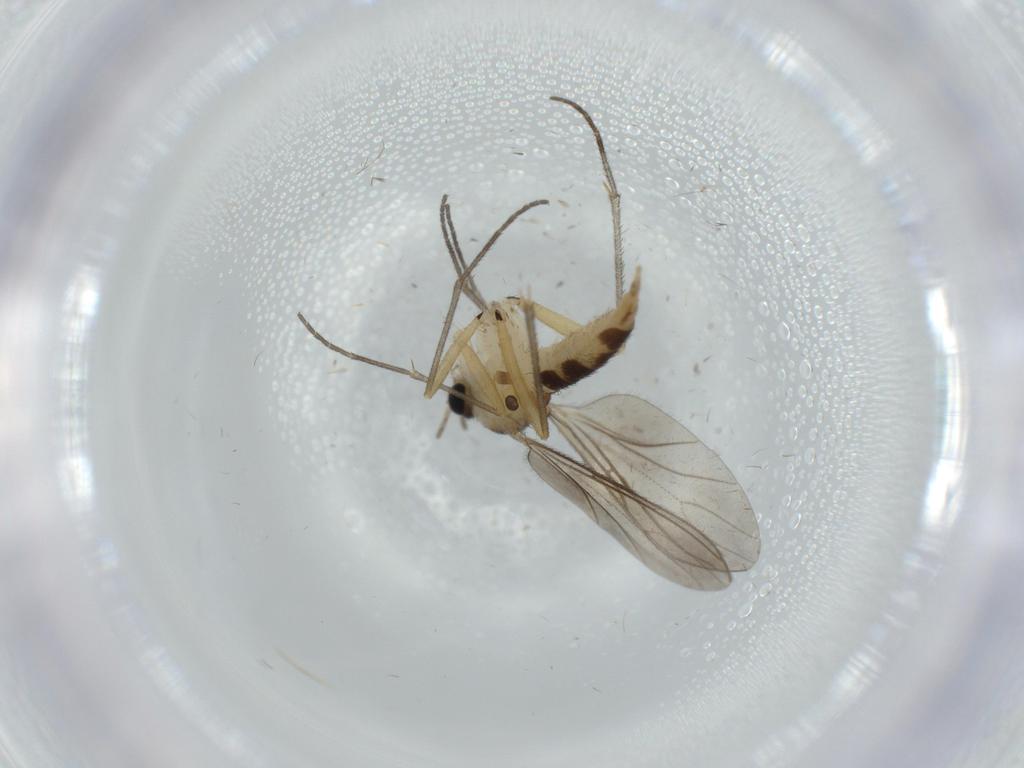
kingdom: Animalia
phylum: Arthropoda
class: Insecta
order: Diptera
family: Sciaridae
